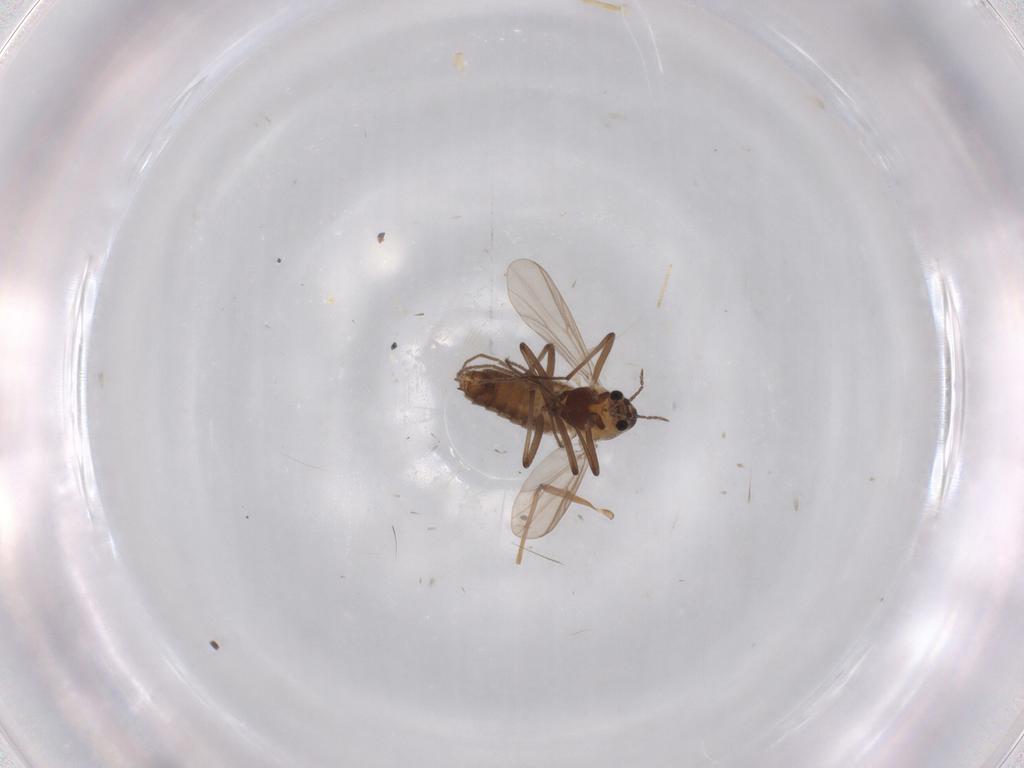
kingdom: Animalia
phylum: Arthropoda
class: Insecta
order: Diptera
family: Chironomidae
